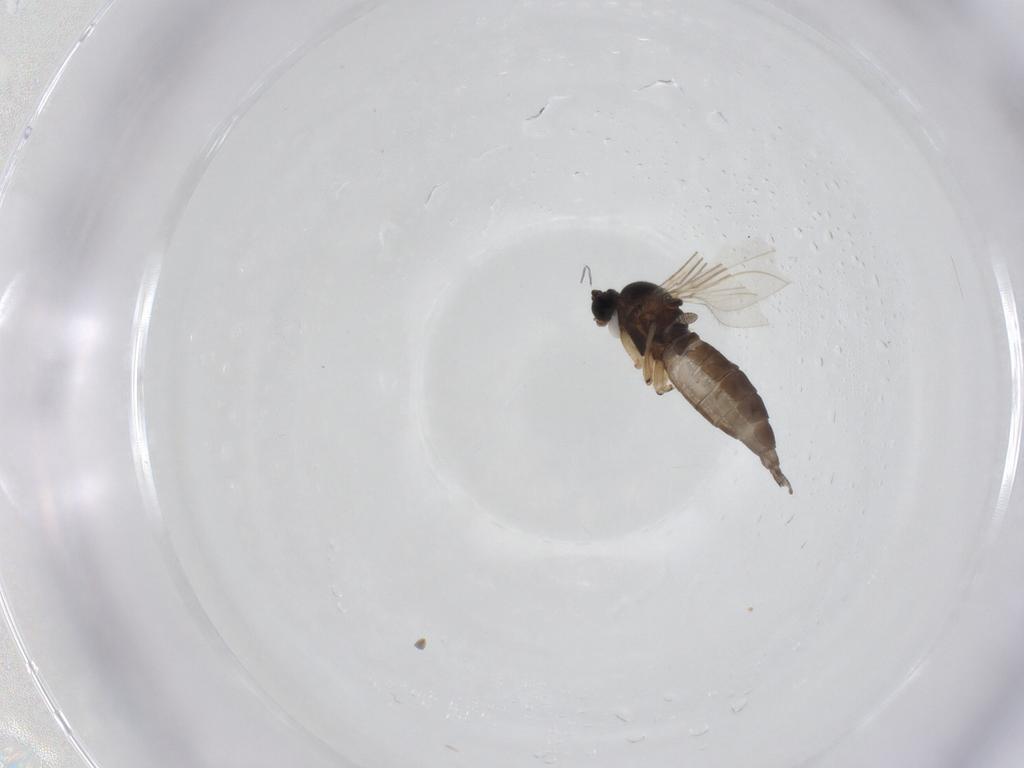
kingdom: Animalia
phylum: Arthropoda
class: Insecta
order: Diptera
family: Sciaridae
